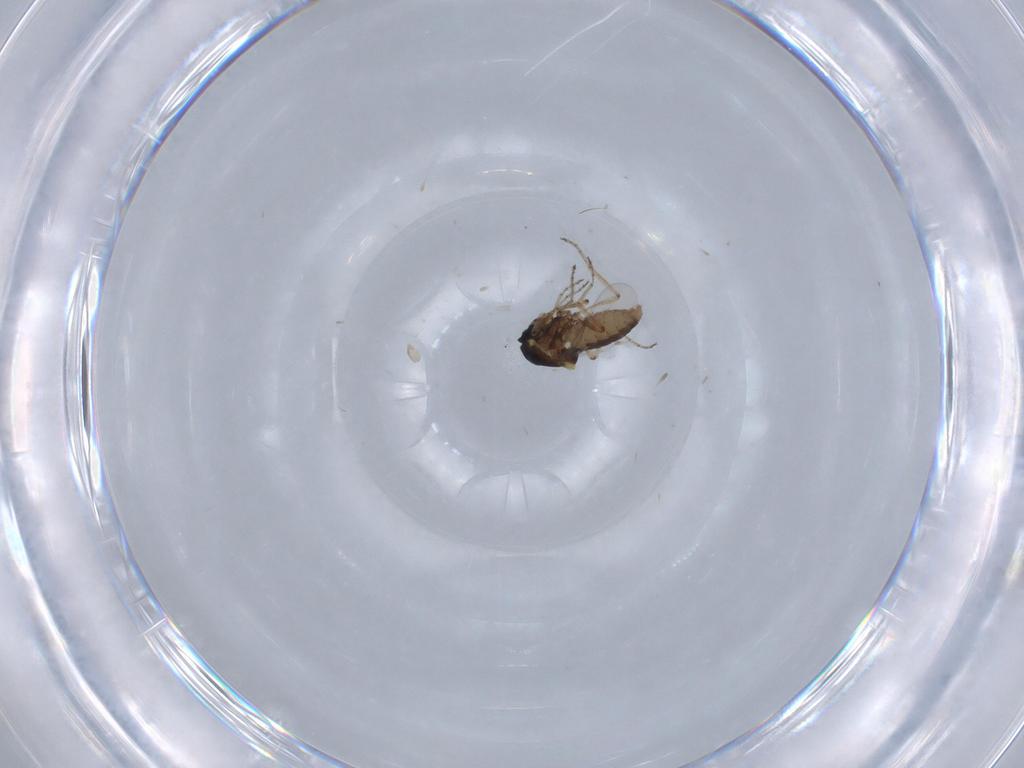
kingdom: Animalia
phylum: Arthropoda
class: Insecta
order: Diptera
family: Ceratopogonidae
